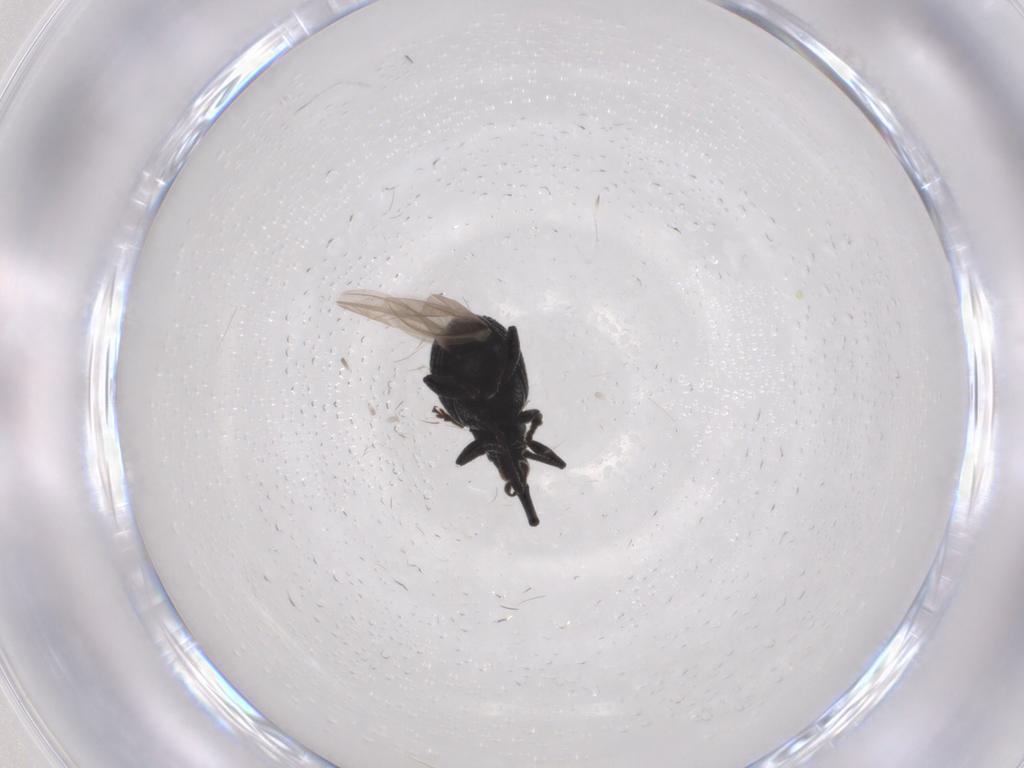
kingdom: Animalia
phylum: Arthropoda
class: Insecta
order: Coleoptera
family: Brentidae
